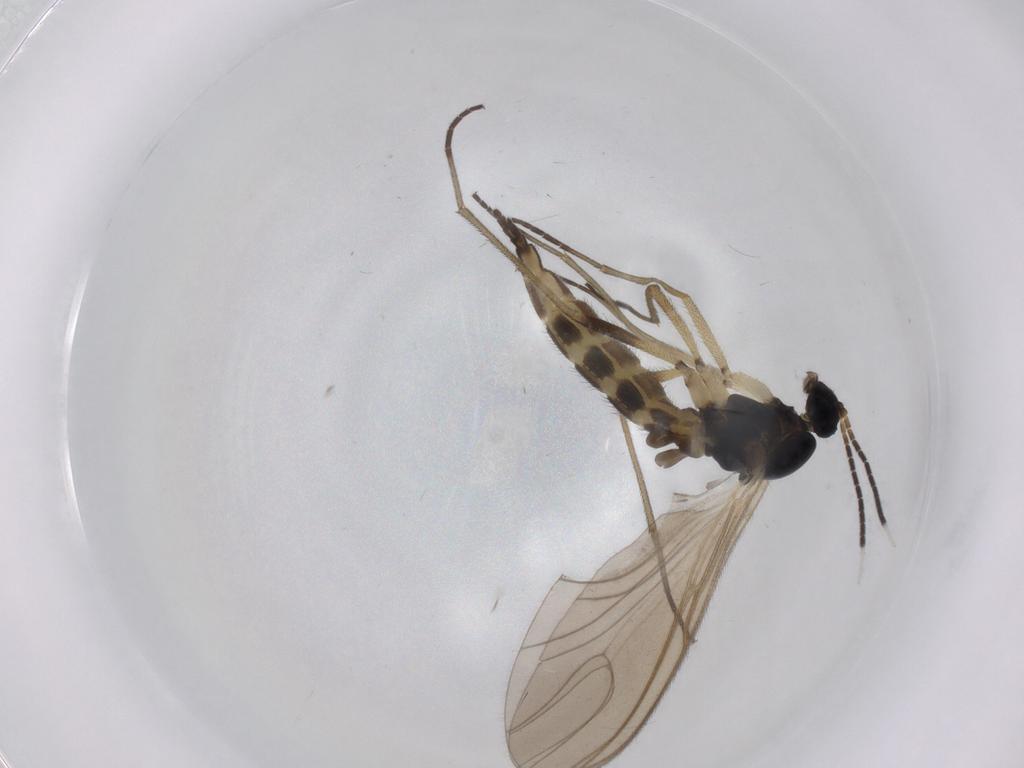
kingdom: Animalia
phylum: Arthropoda
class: Insecta
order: Diptera
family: Sciaridae
